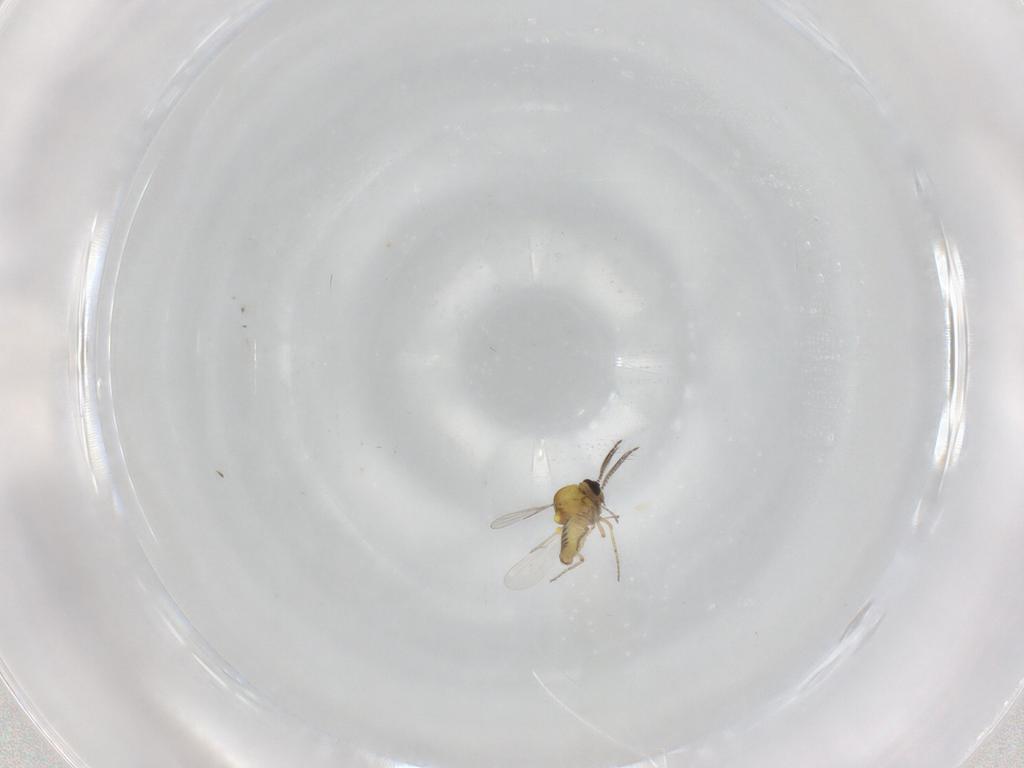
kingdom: Animalia
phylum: Arthropoda
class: Insecta
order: Diptera
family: Ceratopogonidae
